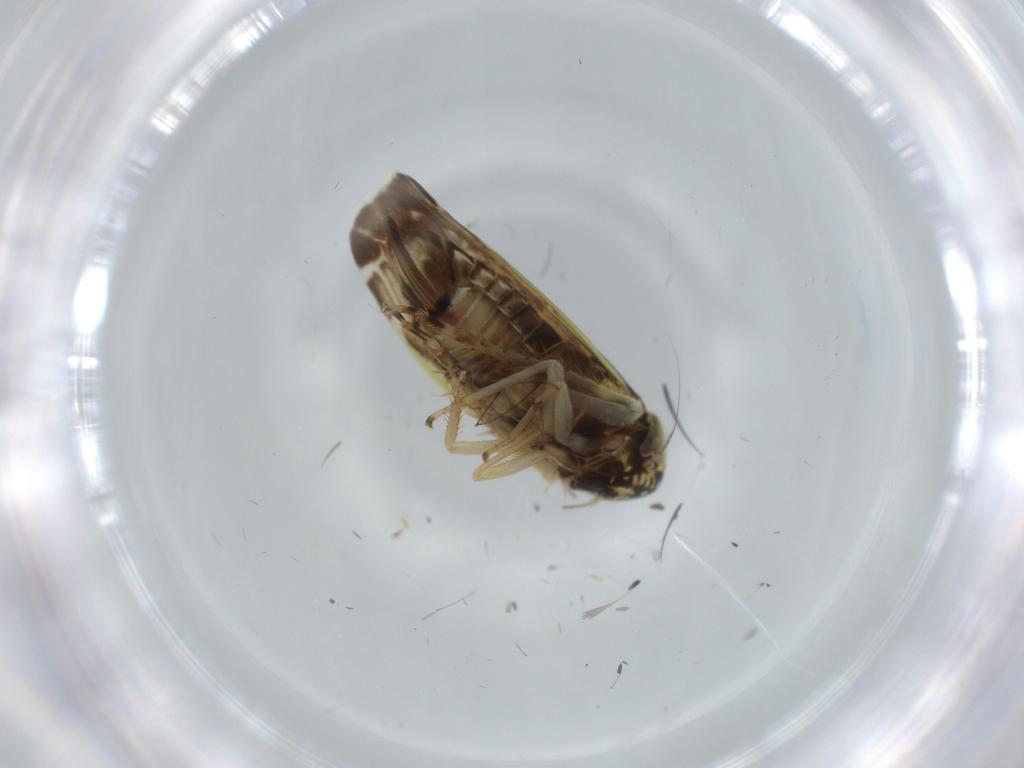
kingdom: Animalia
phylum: Arthropoda
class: Insecta
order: Hemiptera
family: Cicadellidae
